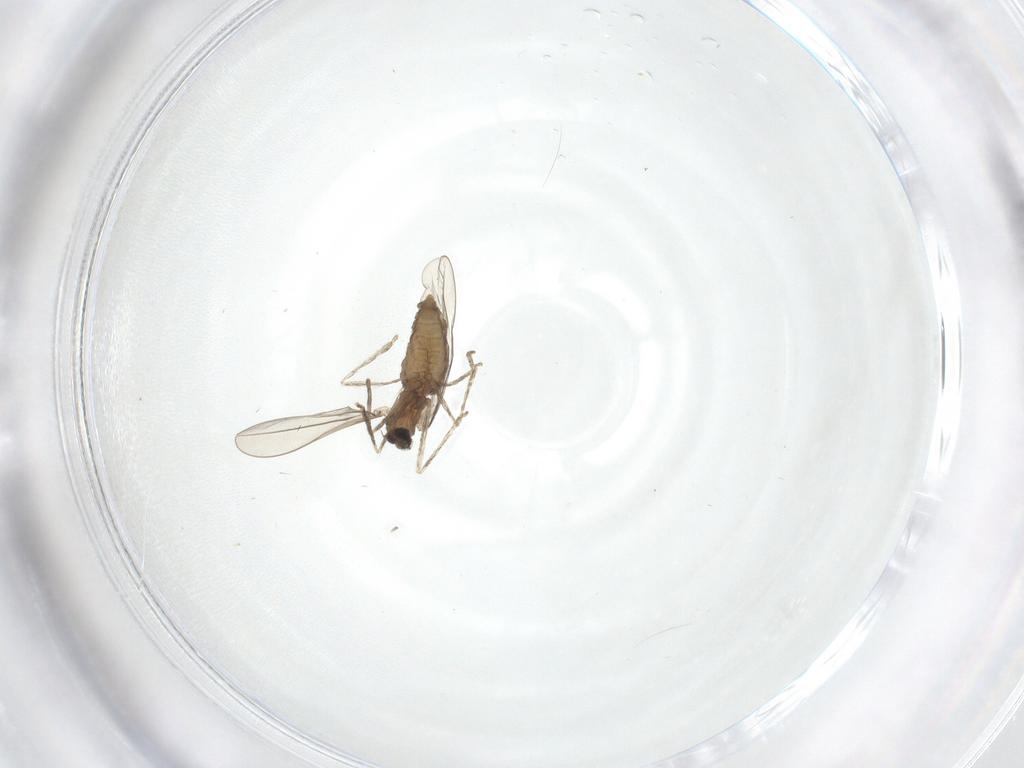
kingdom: Animalia
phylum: Arthropoda
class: Insecta
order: Diptera
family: Cecidomyiidae
